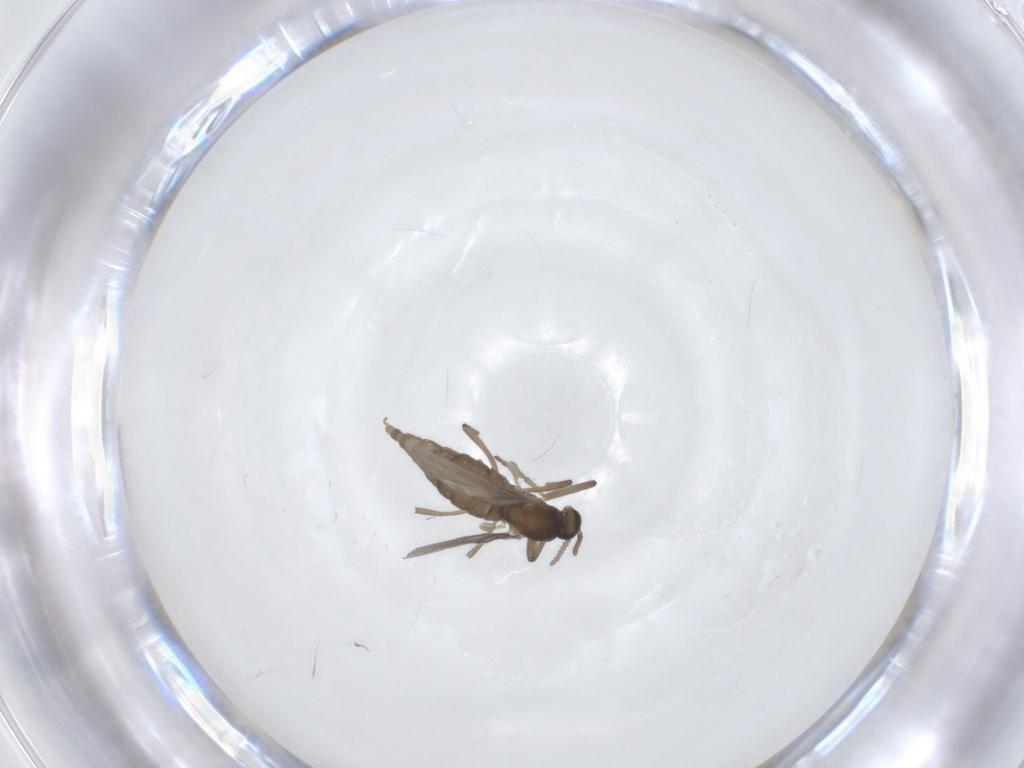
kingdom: Animalia
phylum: Arthropoda
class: Insecta
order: Diptera
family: Cecidomyiidae
